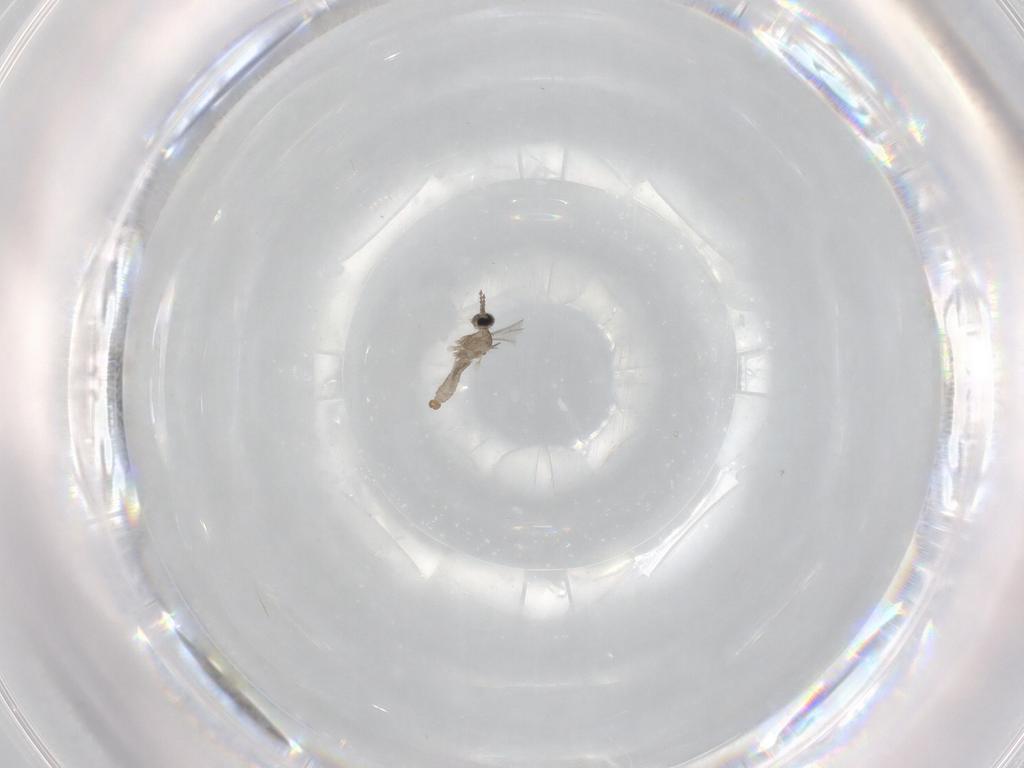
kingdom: Animalia
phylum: Arthropoda
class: Insecta
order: Diptera
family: Cecidomyiidae
